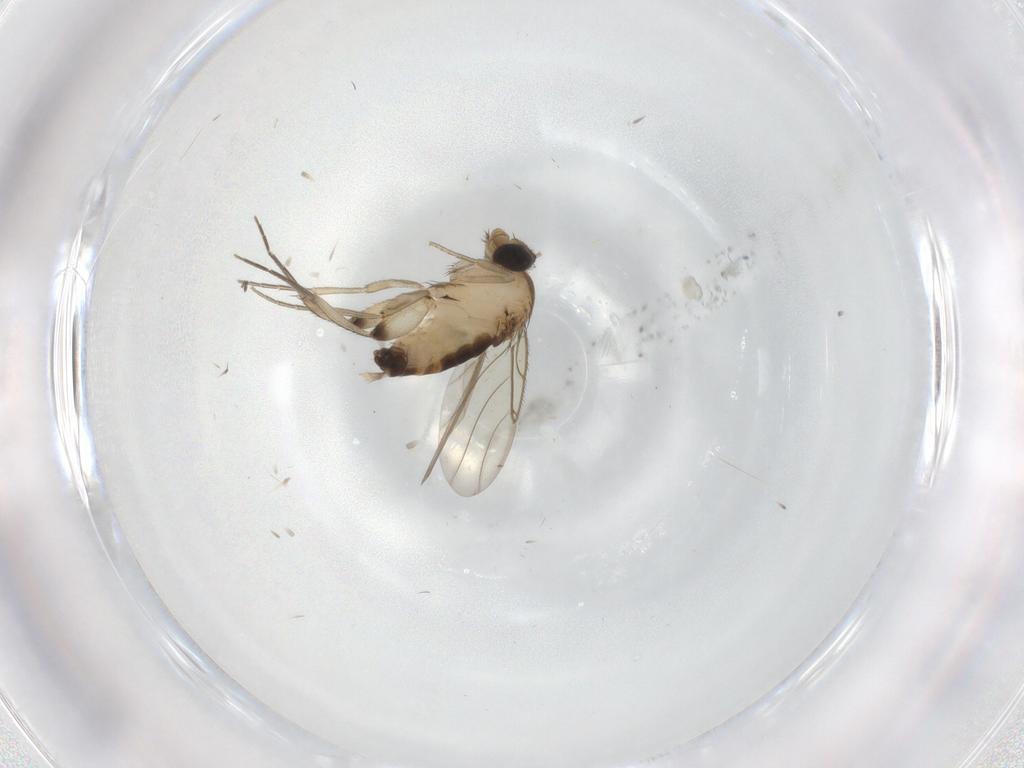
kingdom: Animalia
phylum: Arthropoda
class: Insecta
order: Diptera
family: Phoridae
